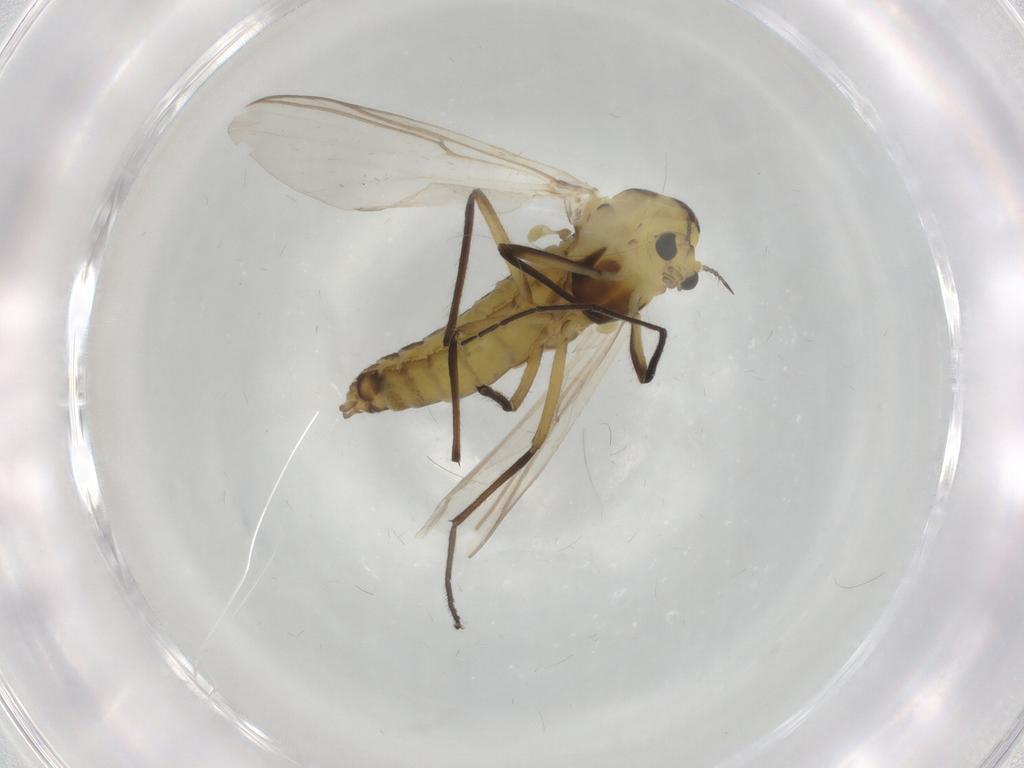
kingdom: Animalia
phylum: Arthropoda
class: Insecta
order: Diptera
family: Chironomidae
